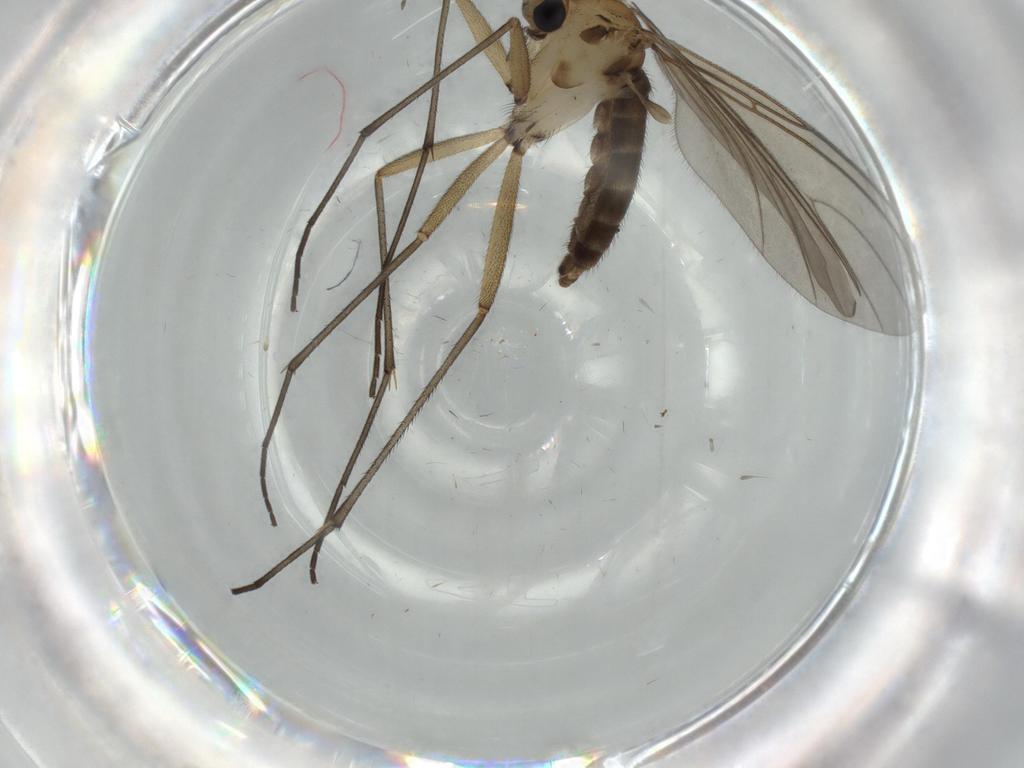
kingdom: Animalia
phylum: Arthropoda
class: Insecta
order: Diptera
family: Sciaridae
